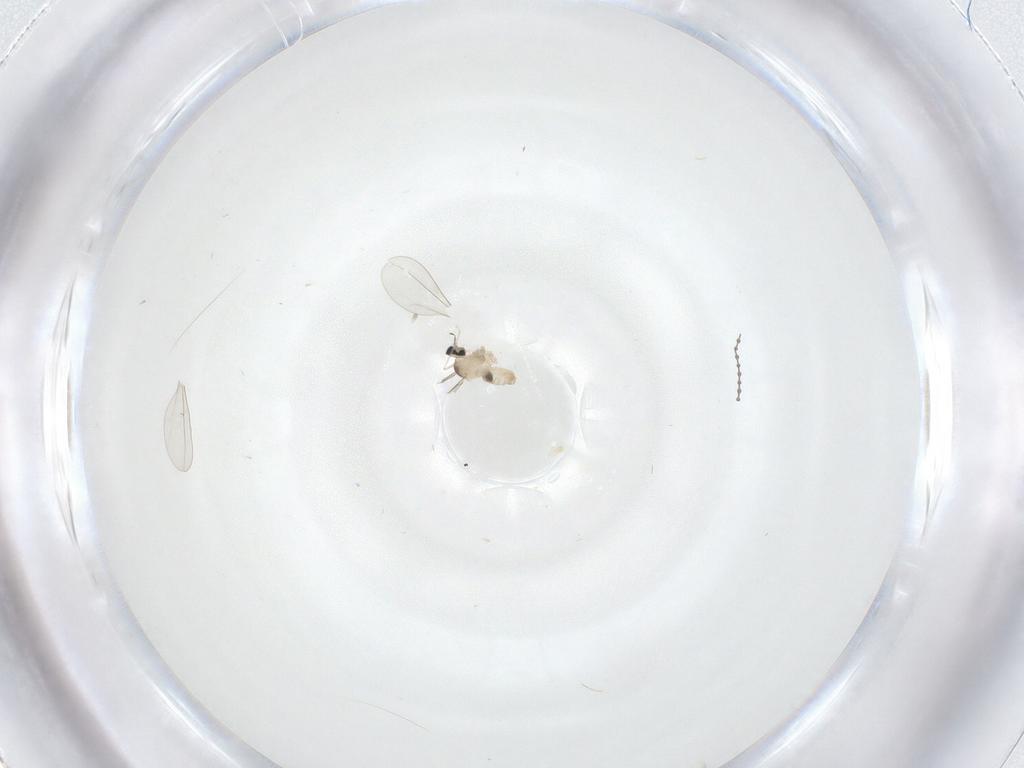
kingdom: Animalia
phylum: Arthropoda
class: Insecta
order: Diptera
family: Cecidomyiidae
